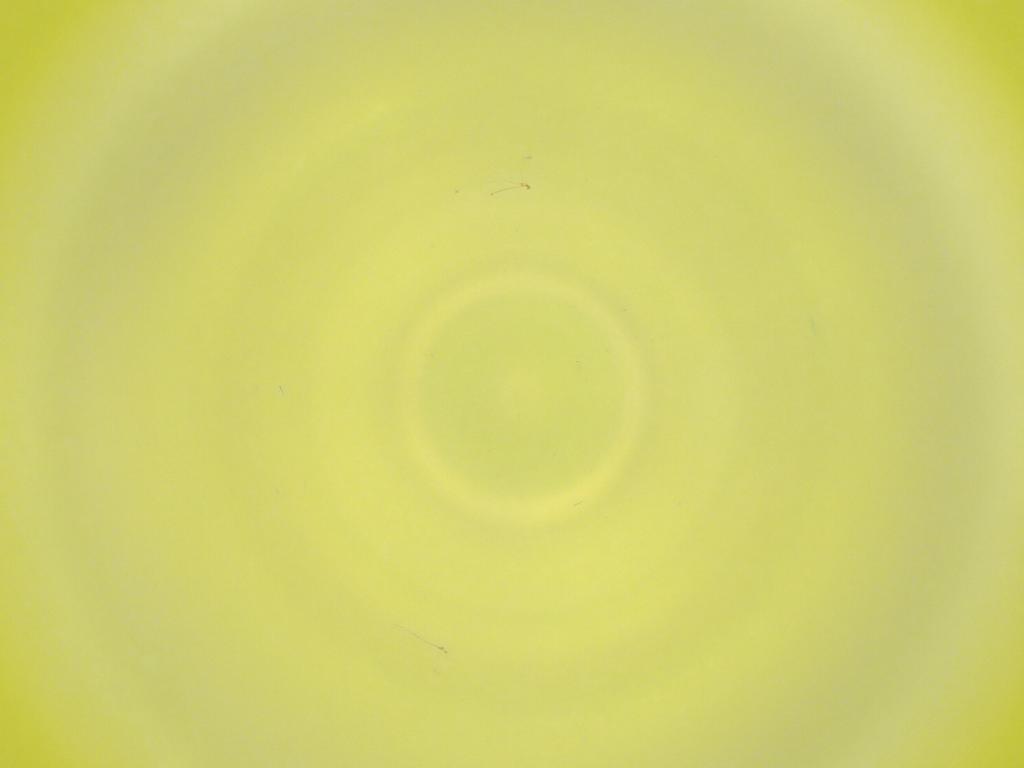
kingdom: Animalia
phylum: Arthropoda
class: Insecta
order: Diptera
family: Cecidomyiidae
